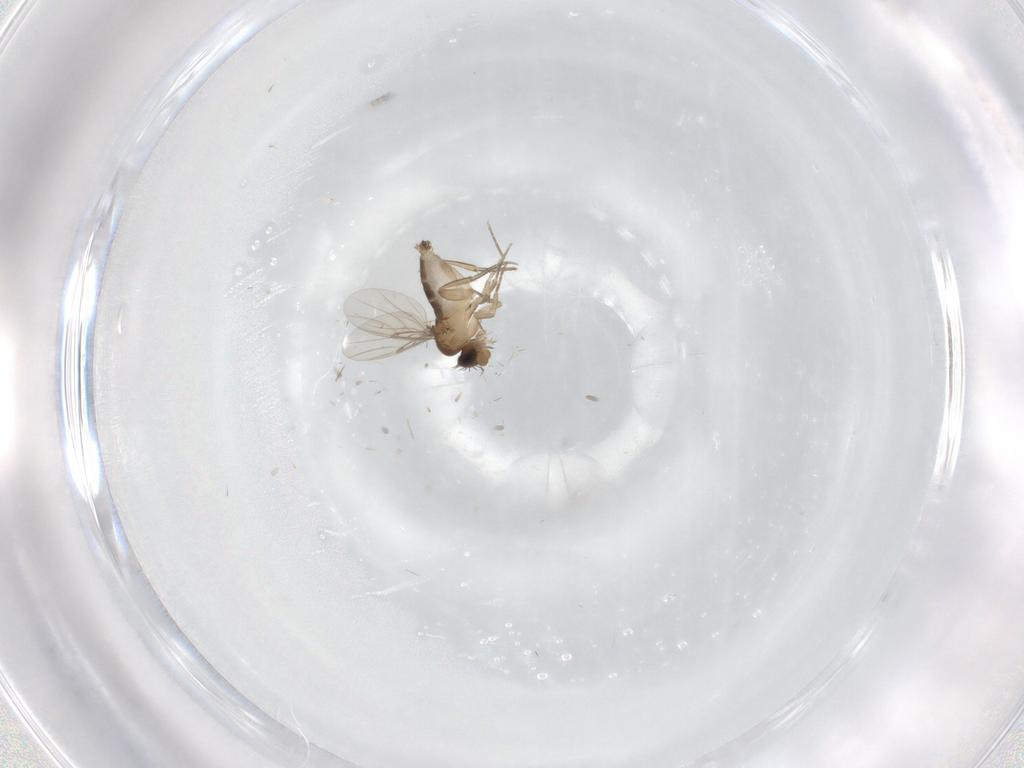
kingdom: Animalia
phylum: Arthropoda
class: Insecta
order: Diptera
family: Phoridae
